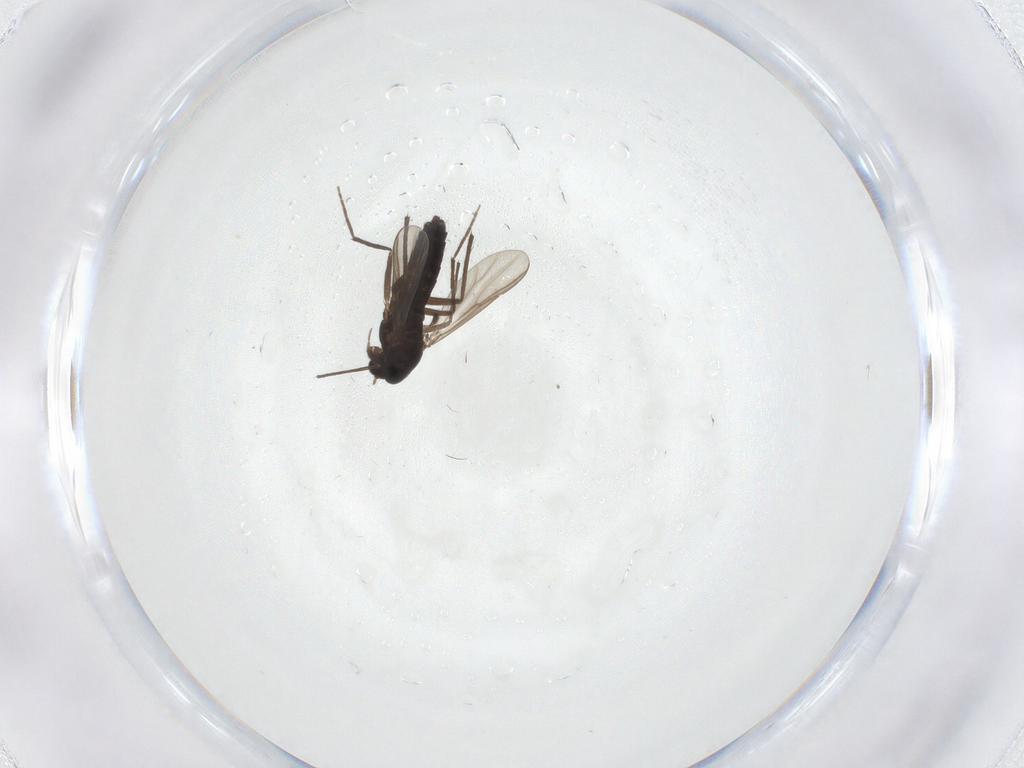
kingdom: Animalia
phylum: Arthropoda
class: Insecta
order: Diptera
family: Chironomidae
